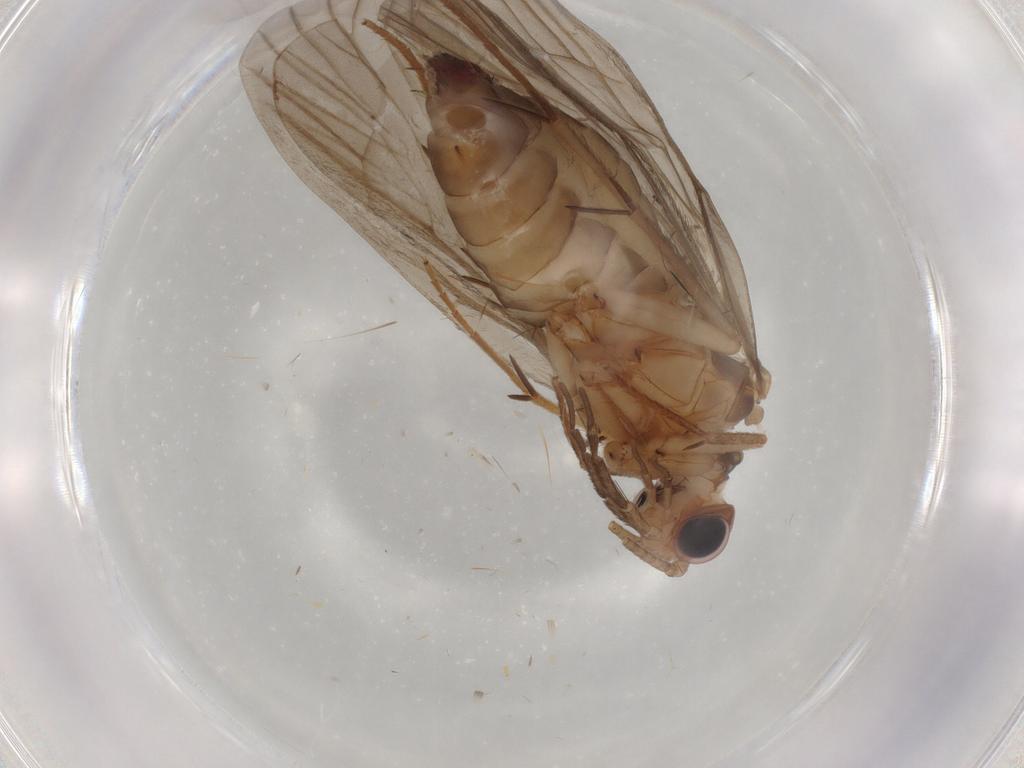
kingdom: Animalia
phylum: Arthropoda
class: Insecta
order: Trichoptera
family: Philopotamidae
